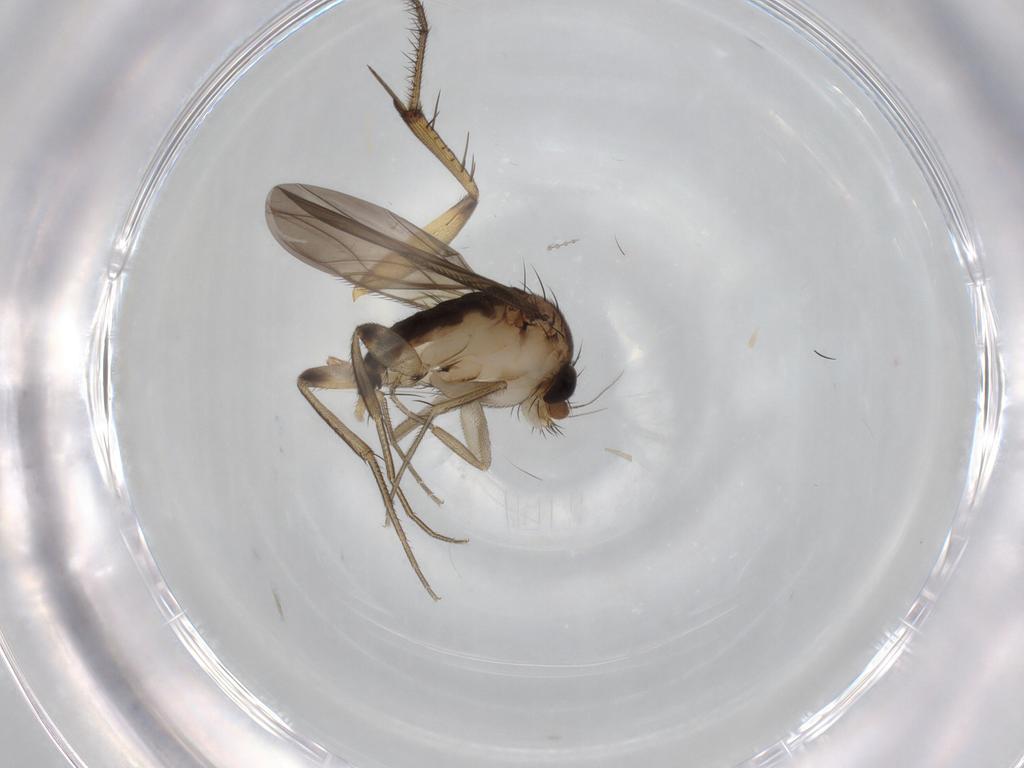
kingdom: Animalia
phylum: Arthropoda
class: Insecta
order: Diptera
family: Phoridae
